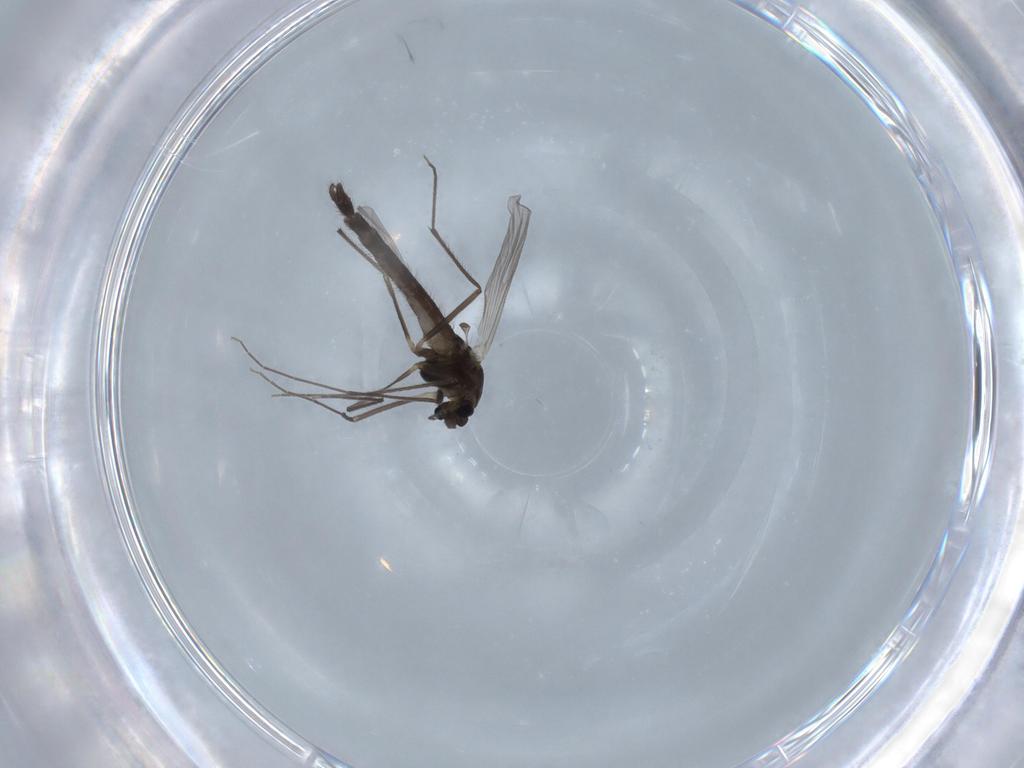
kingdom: Animalia
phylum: Arthropoda
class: Insecta
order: Diptera
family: Chironomidae
